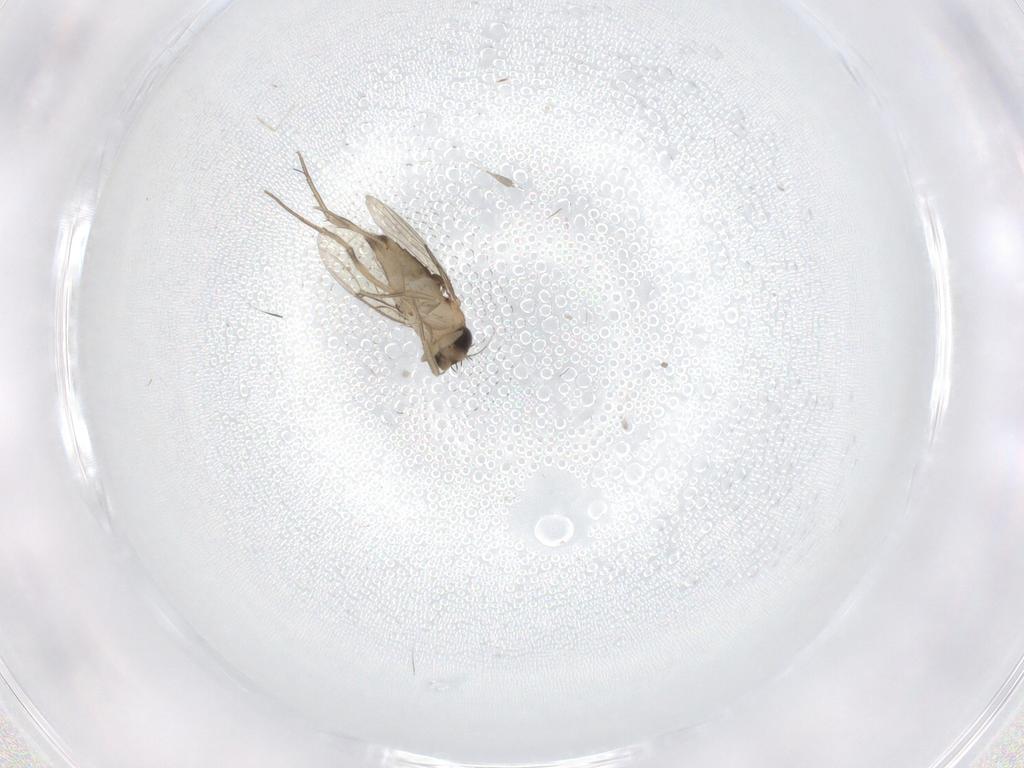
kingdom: Animalia
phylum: Arthropoda
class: Insecta
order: Diptera
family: Phoridae
